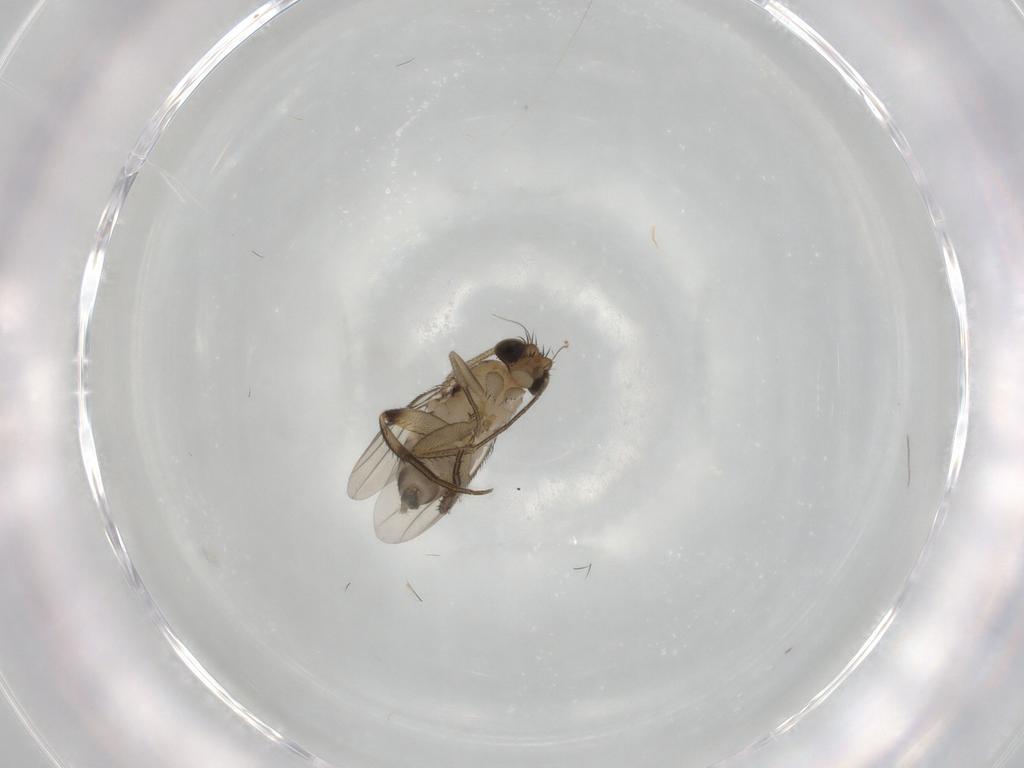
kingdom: Animalia
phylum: Arthropoda
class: Insecta
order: Diptera
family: Phoridae
